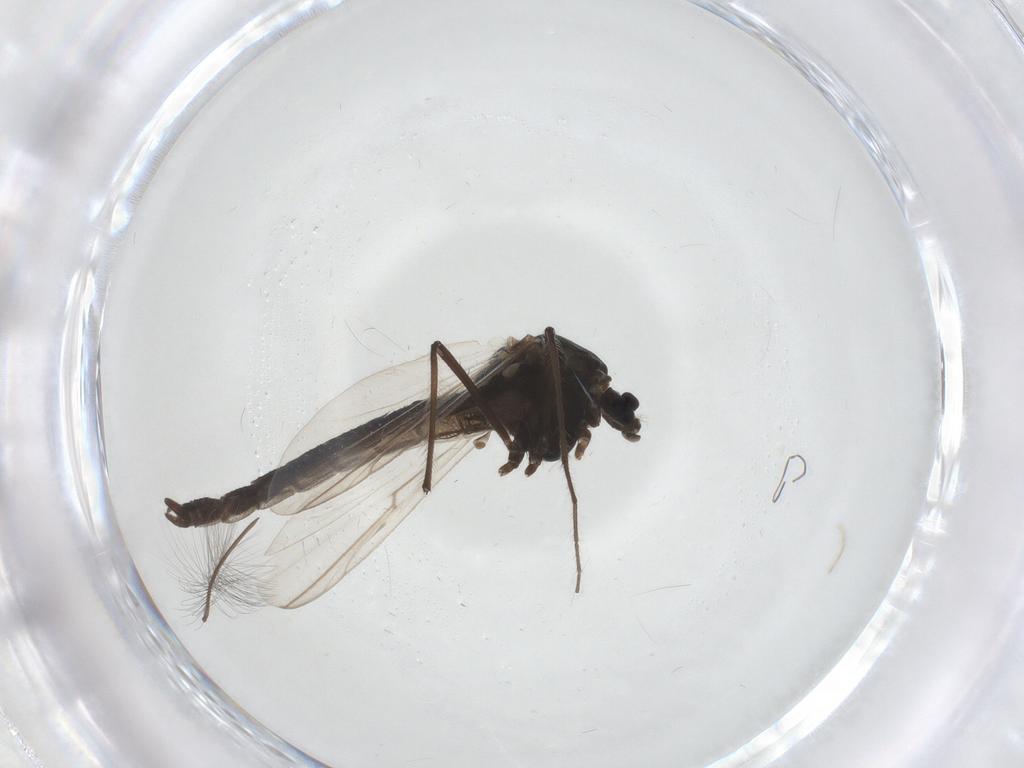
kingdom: Animalia
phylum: Arthropoda
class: Insecta
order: Diptera
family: Chironomidae
